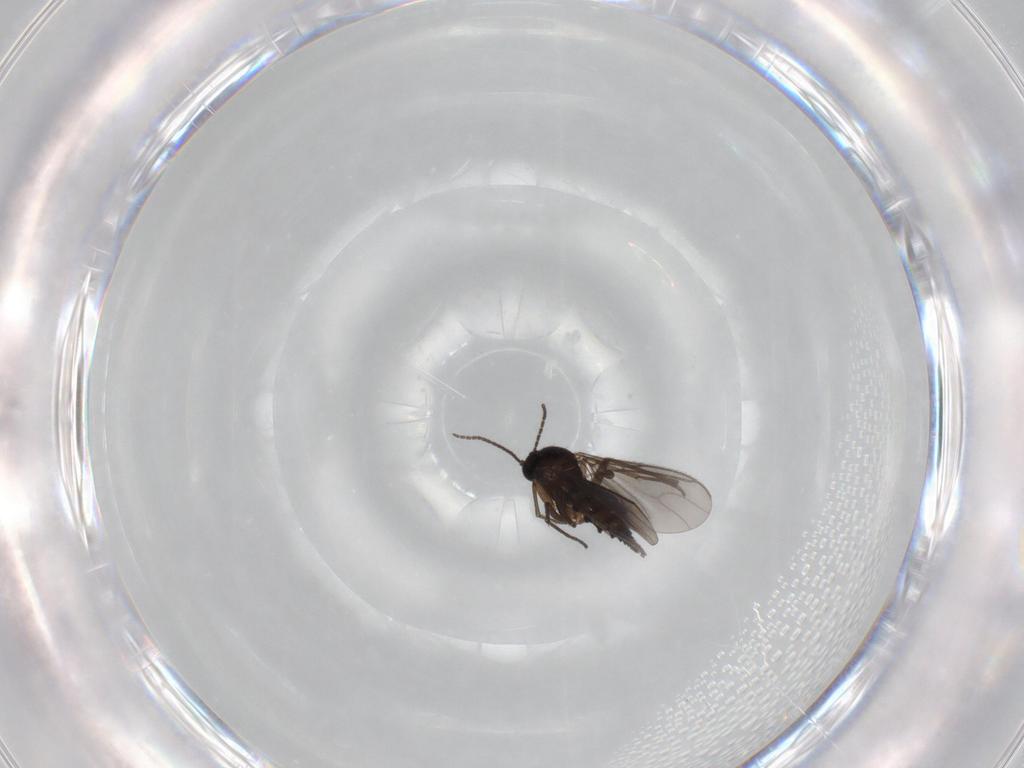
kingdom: Animalia
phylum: Arthropoda
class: Insecta
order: Diptera
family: Sciaridae
